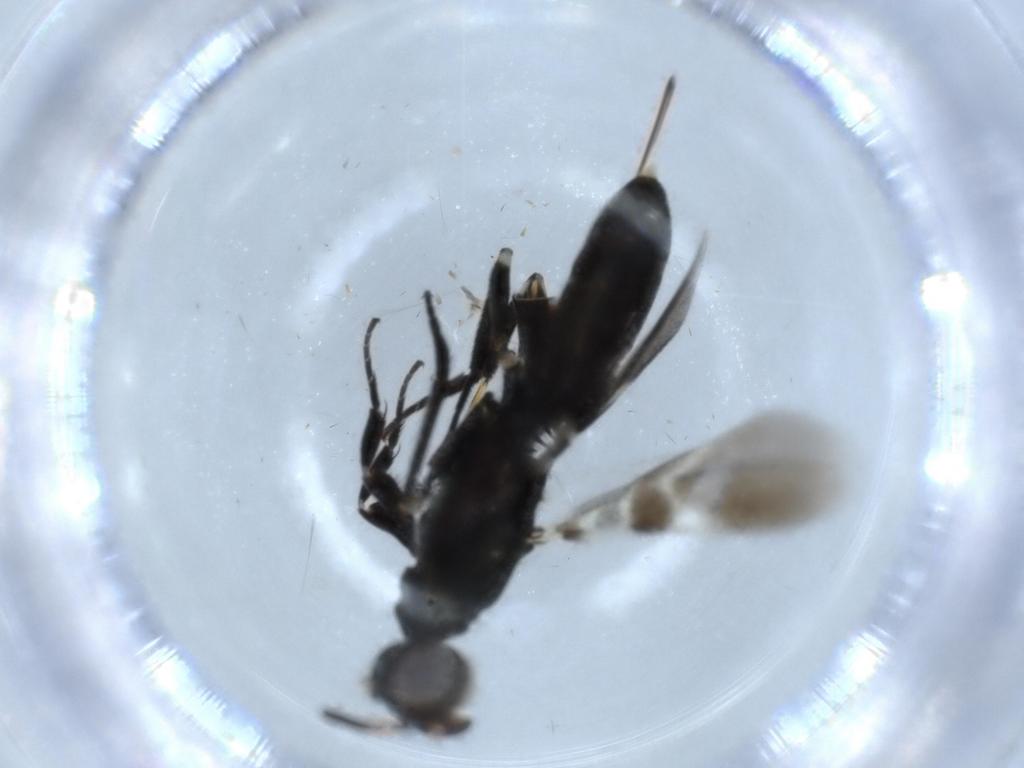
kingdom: Animalia
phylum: Arthropoda
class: Insecta
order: Hymenoptera
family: Eupelmidae
